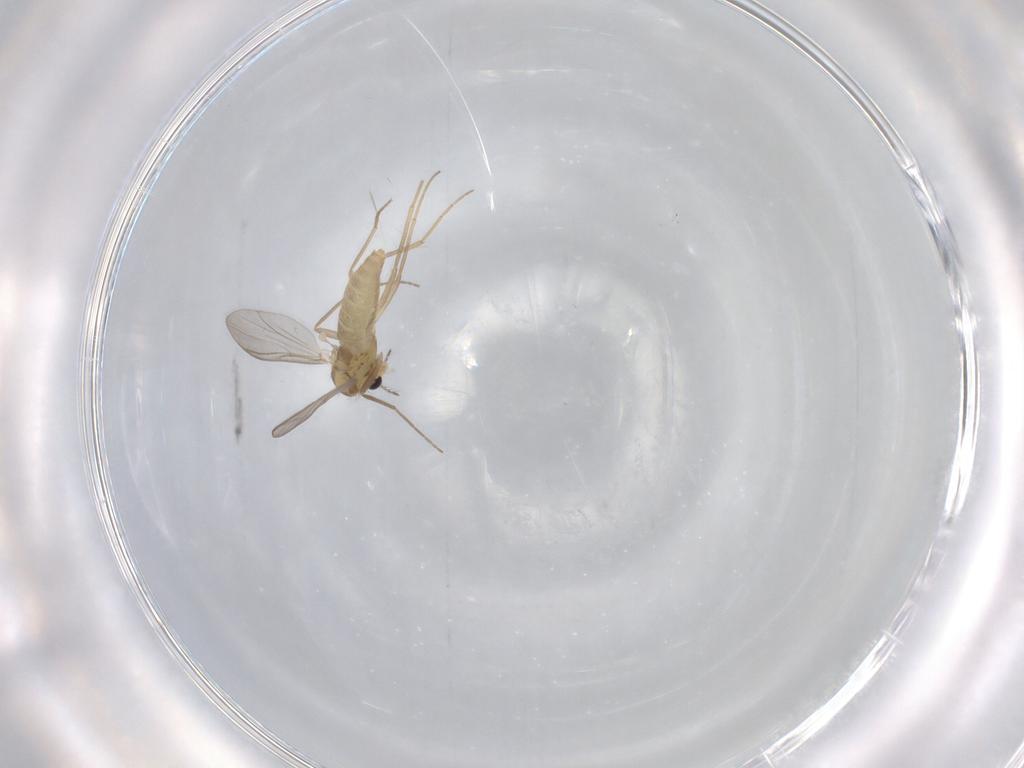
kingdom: Animalia
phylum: Arthropoda
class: Insecta
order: Diptera
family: Chironomidae
